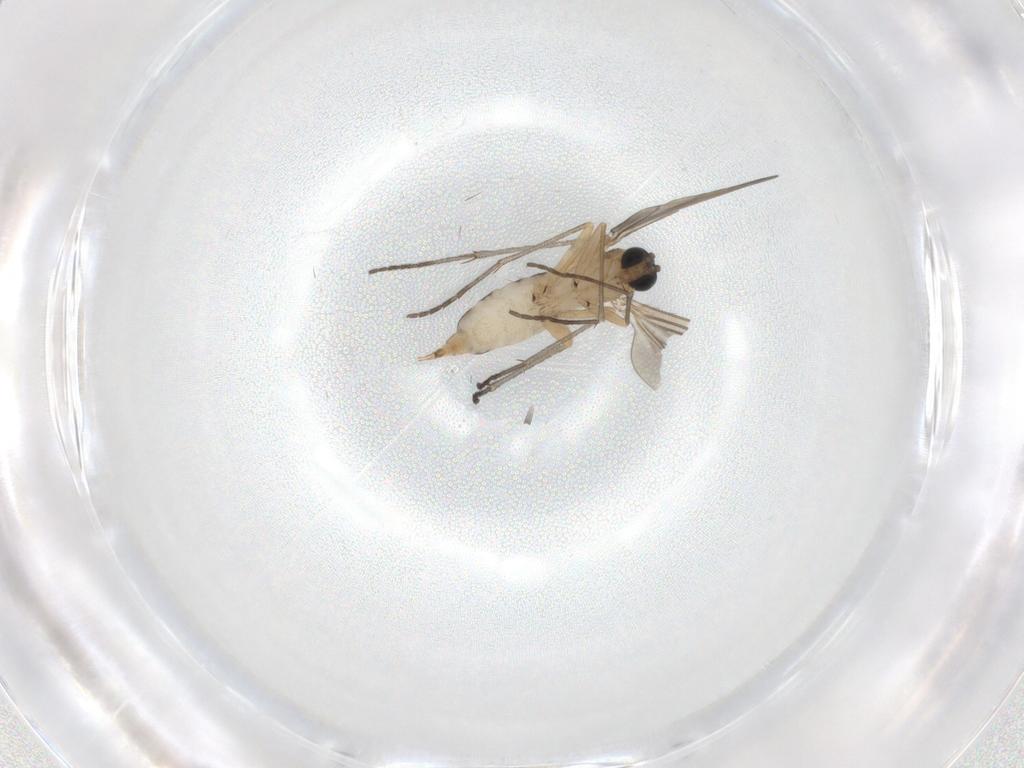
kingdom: Animalia
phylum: Arthropoda
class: Insecta
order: Diptera
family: Sciaridae
